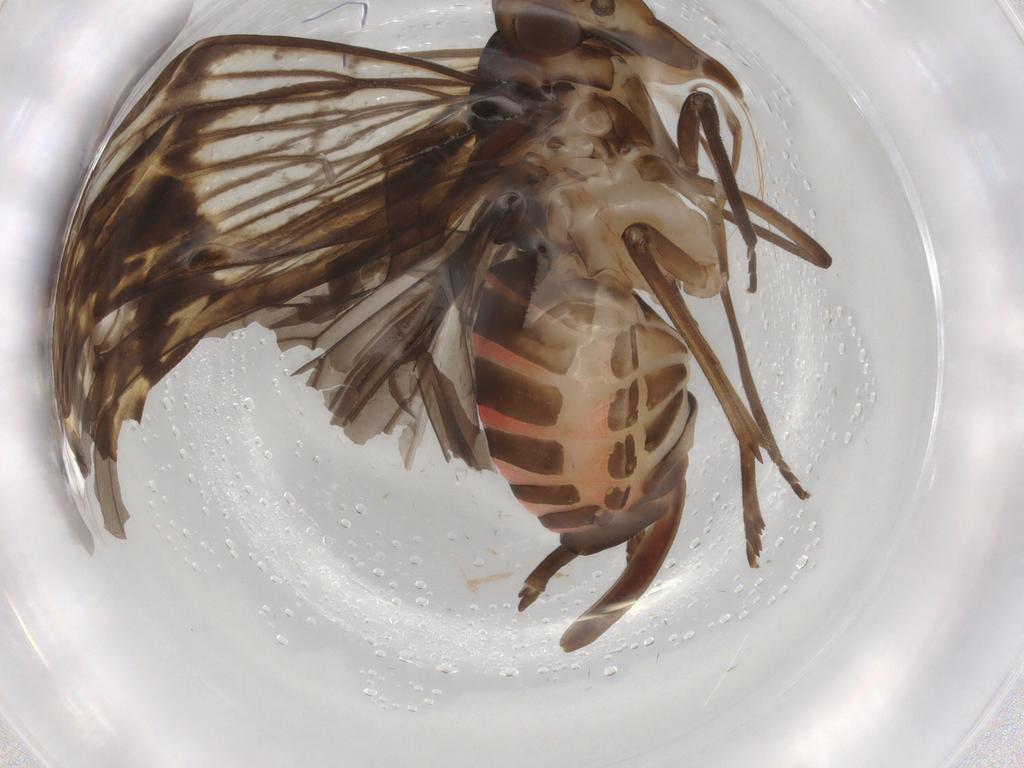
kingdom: Animalia
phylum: Arthropoda
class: Insecta
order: Hemiptera
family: Cixiidae
